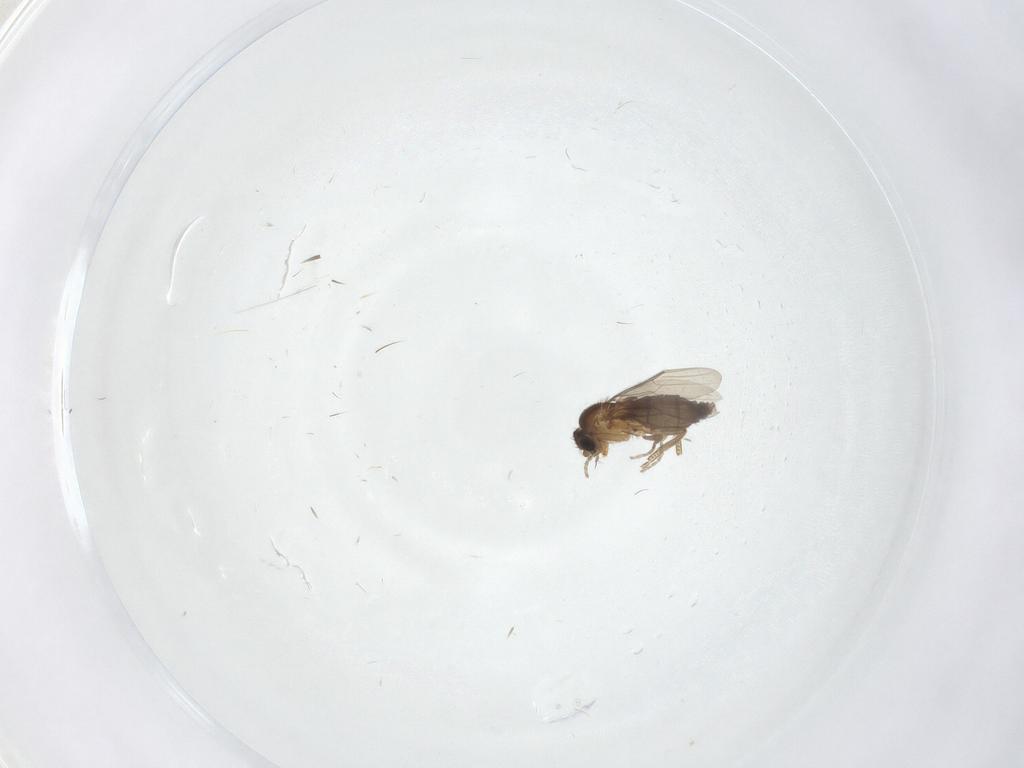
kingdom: Animalia
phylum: Arthropoda
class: Insecta
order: Diptera
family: Phoridae
